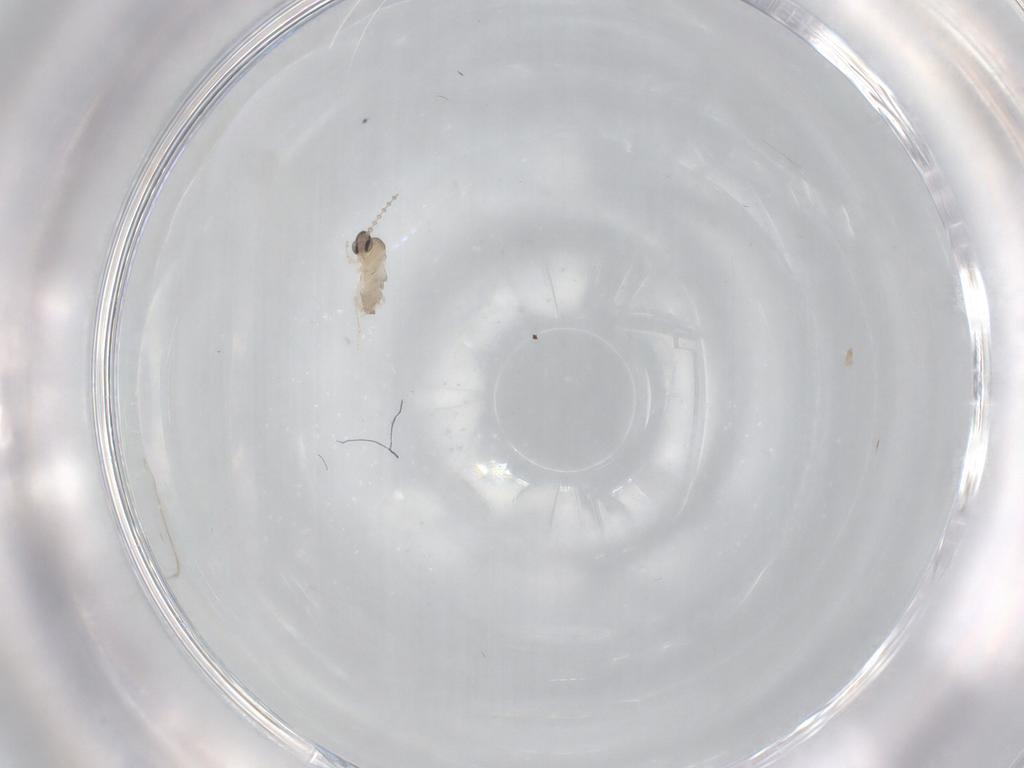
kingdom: Animalia
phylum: Arthropoda
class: Insecta
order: Diptera
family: Cecidomyiidae
